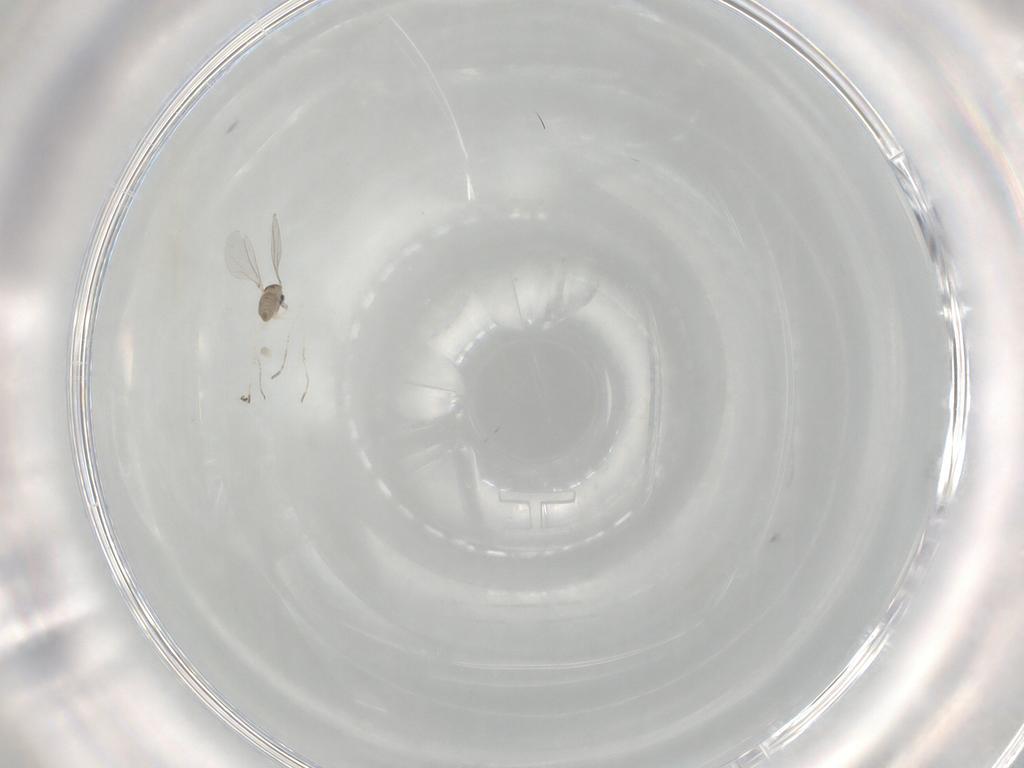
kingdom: Animalia
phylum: Arthropoda
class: Insecta
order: Diptera
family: Cecidomyiidae
